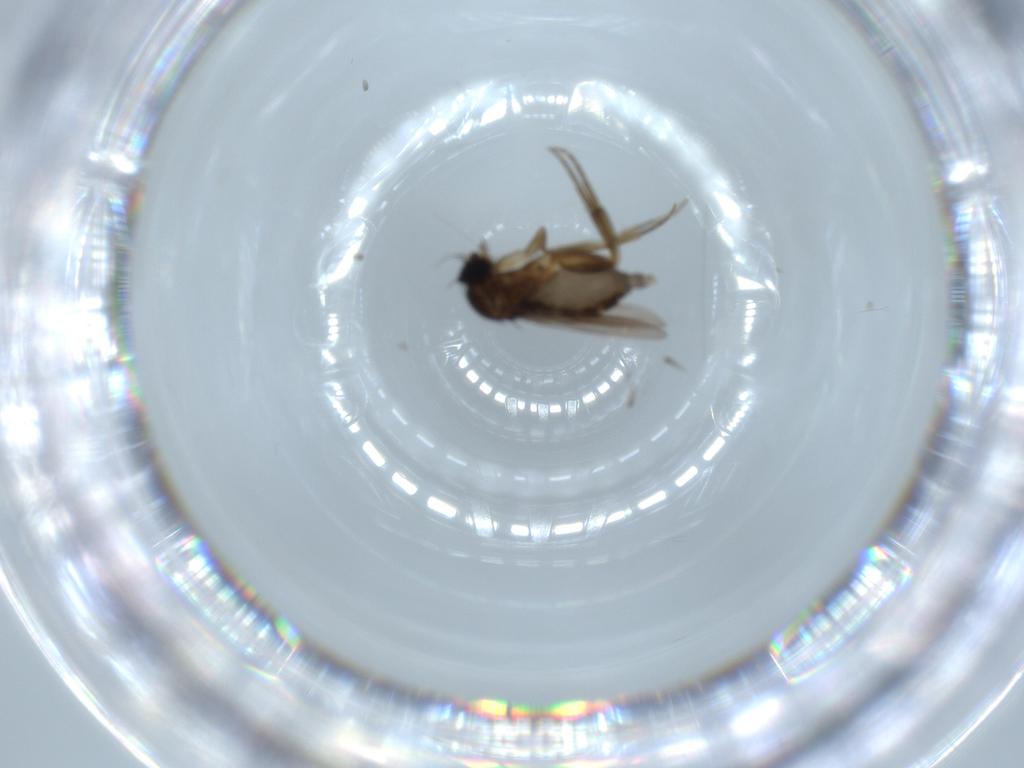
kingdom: Animalia
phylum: Arthropoda
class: Insecta
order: Diptera
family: Phoridae
